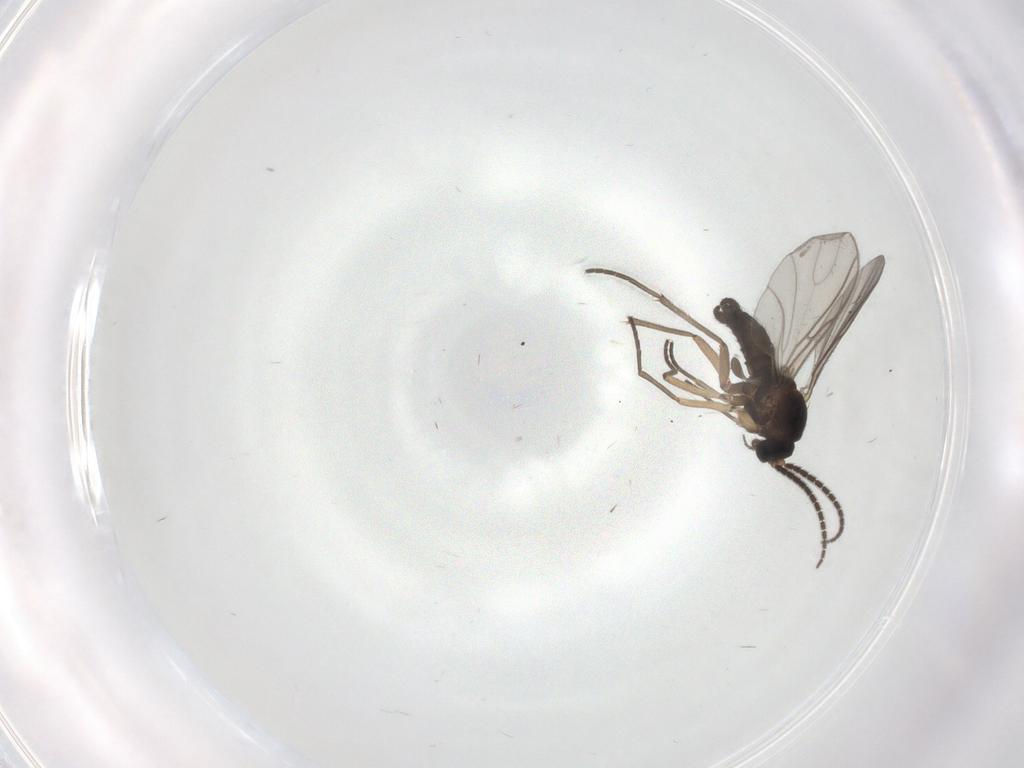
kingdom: Animalia
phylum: Arthropoda
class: Insecta
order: Diptera
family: Sciaridae
